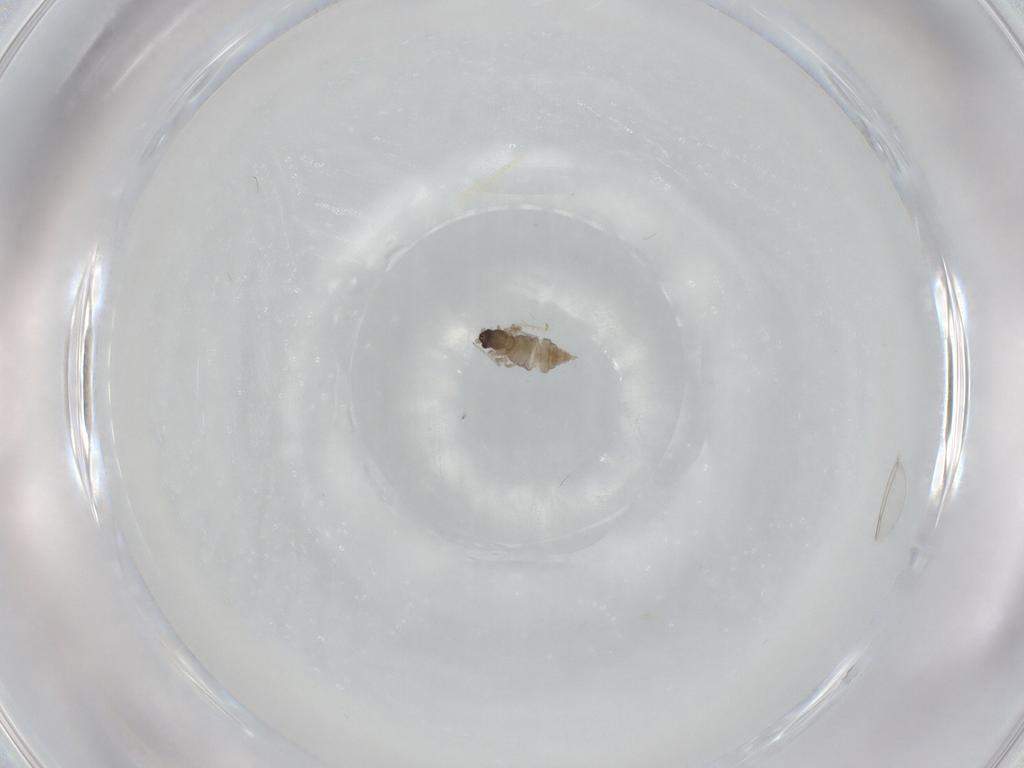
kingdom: Animalia
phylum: Arthropoda
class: Insecta
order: Diptera
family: Cecidomyiidae
